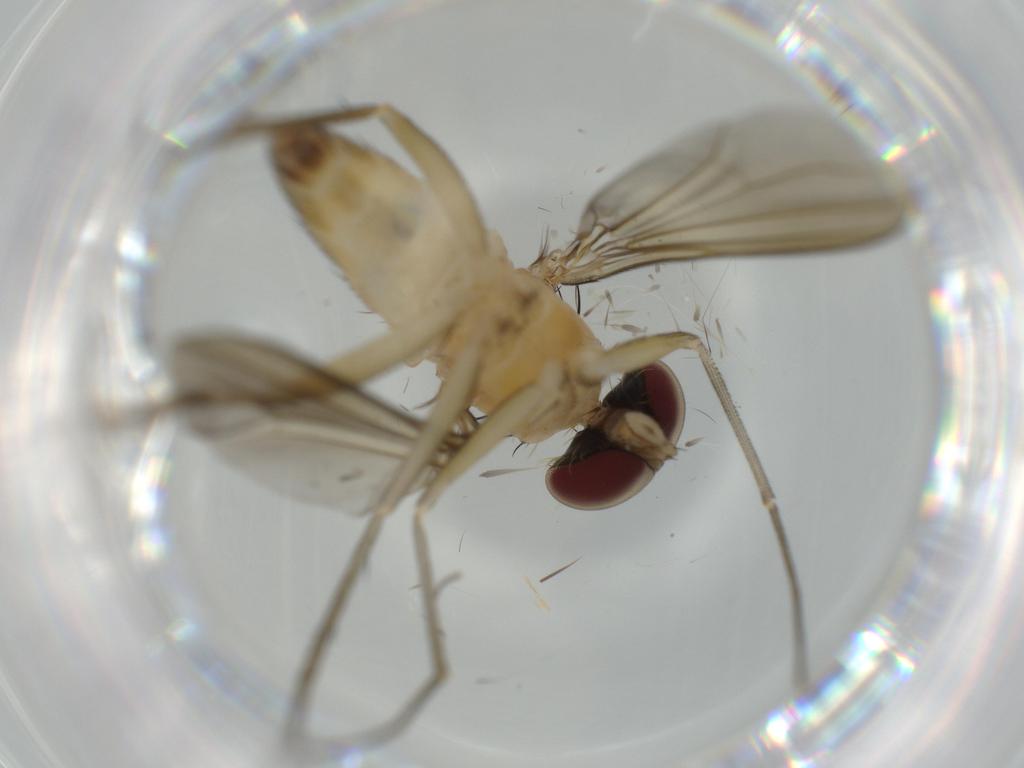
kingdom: Animalia
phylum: Arthropoda
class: Insecta
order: Diptera
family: Dolichopodidae
